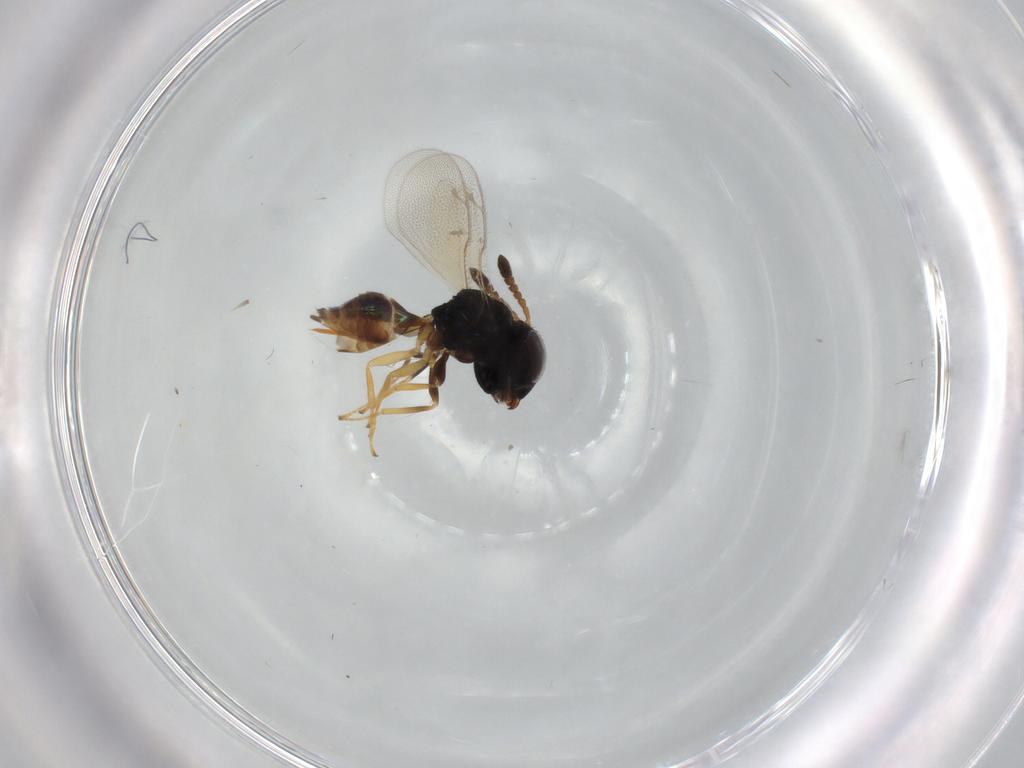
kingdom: Animalia
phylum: Arthropoda
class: Insecta
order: Hymenoptera
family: Pteromalidae
